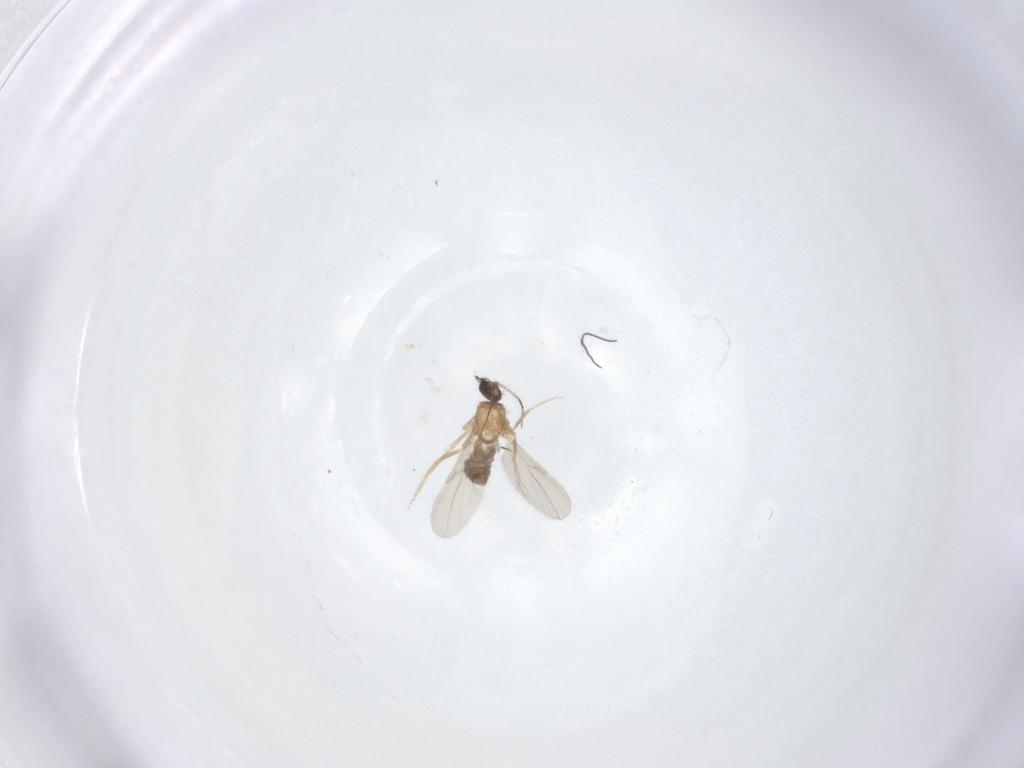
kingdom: Animalia
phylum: Arthropoda
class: Insecta
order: Diptera
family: Ceratopogonidae
